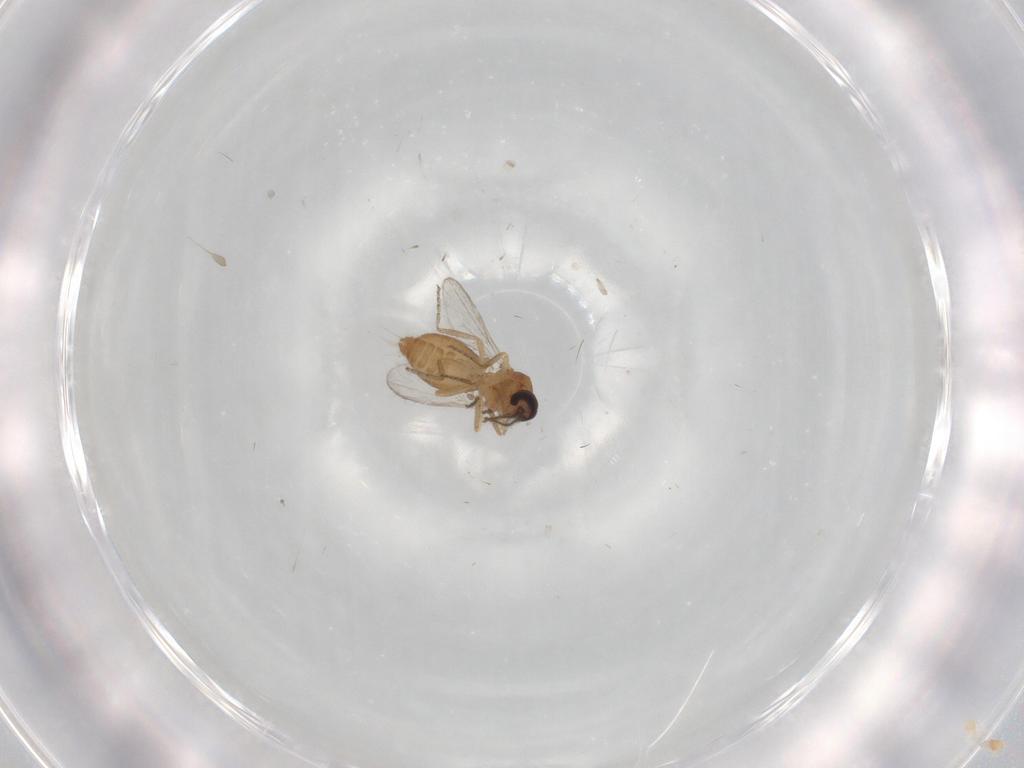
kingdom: Animalia
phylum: Arthropoda
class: Insecta
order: Diptera
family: Ceratopogonidae
